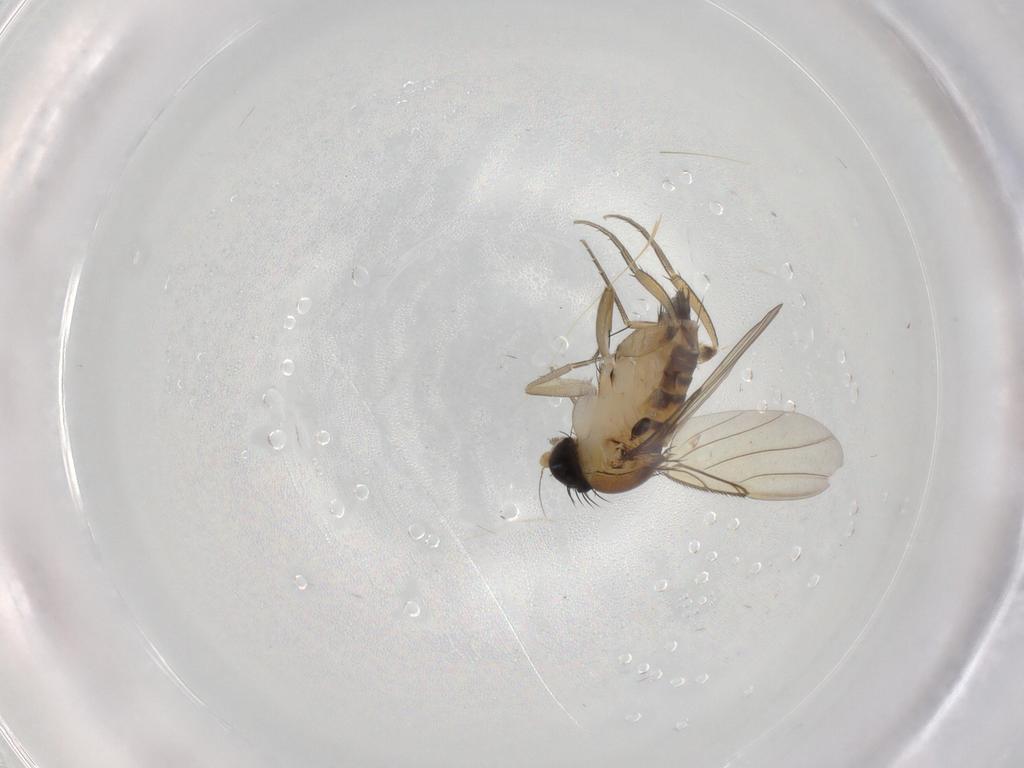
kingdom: Animalia
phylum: Arthropoda
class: Insecta
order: Diptera
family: Phoridae
